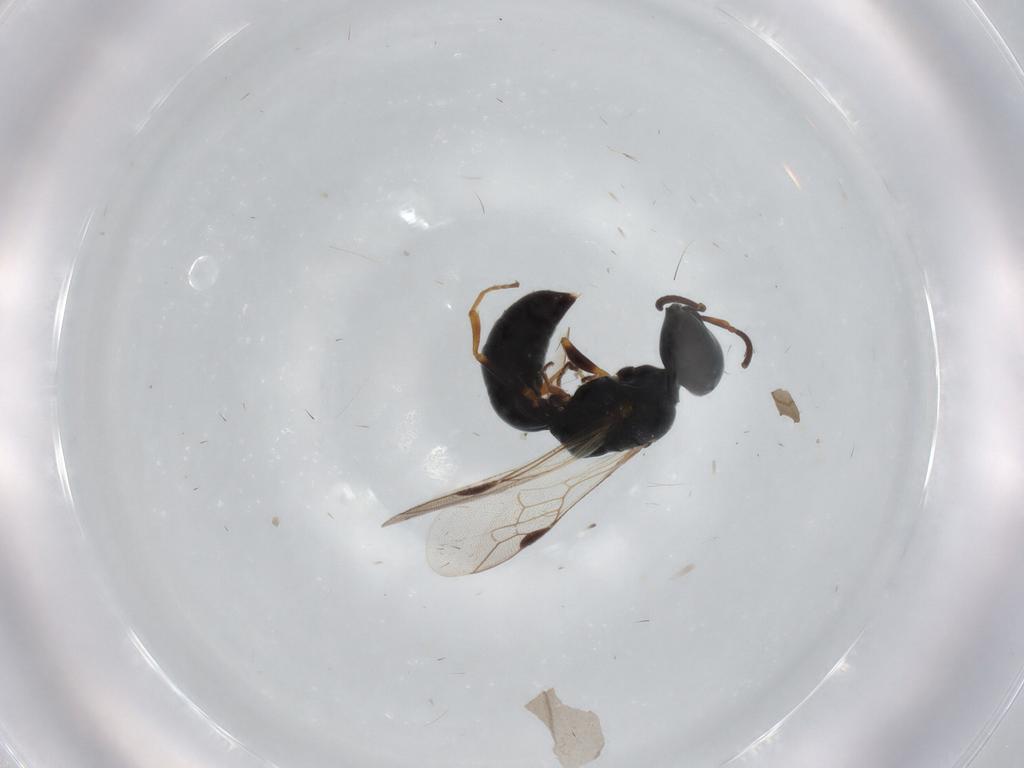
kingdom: Animalia
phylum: Arthropoda
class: Insecta
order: Hymenoptera
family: Pemphredonidae
